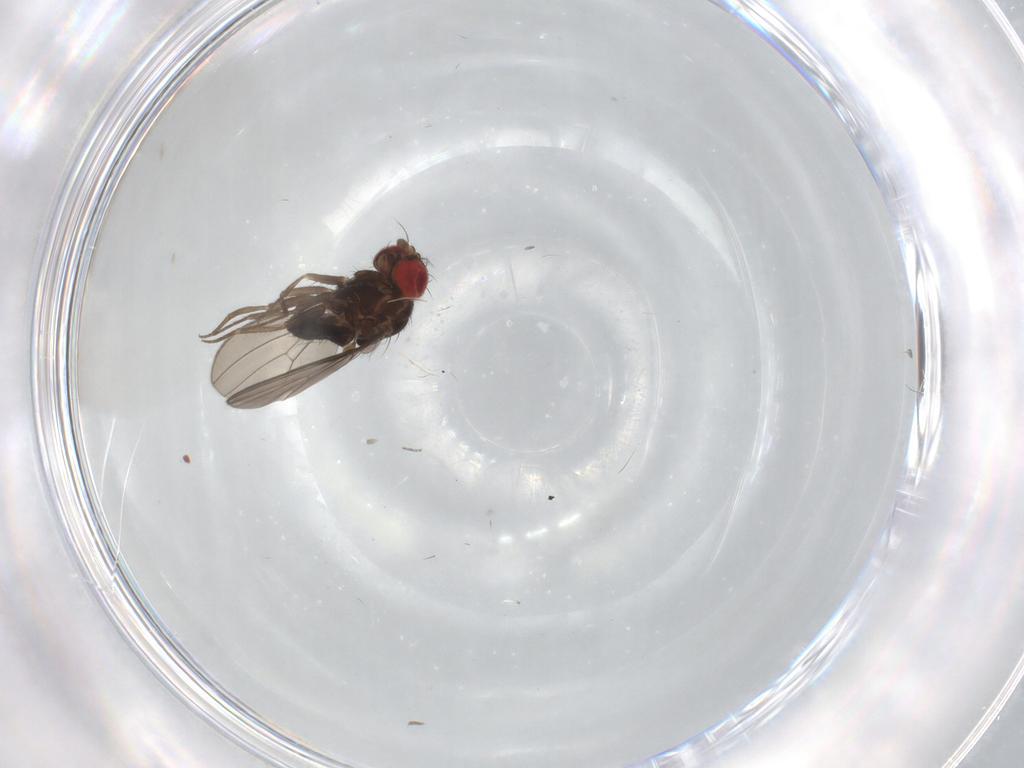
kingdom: Animalia
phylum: Arthropoda
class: Insecta
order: Diptera
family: Drosophilidae
